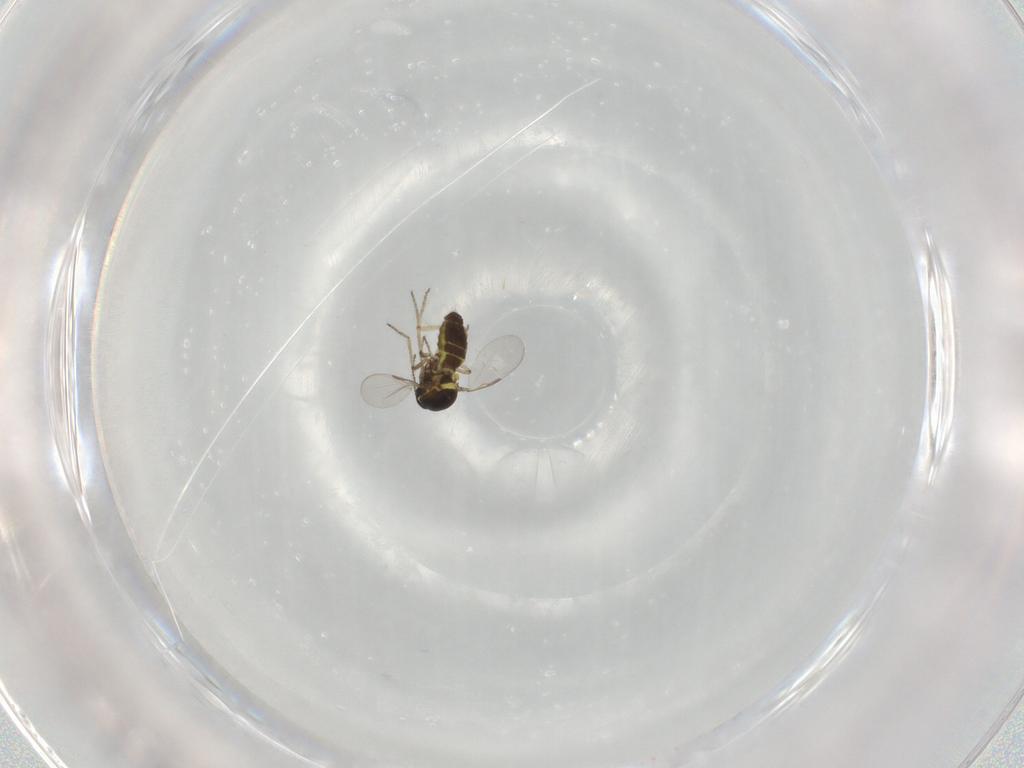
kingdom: Animalia
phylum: Arthropoda
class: Insecta
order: Diptera
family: Ceratopogonidae
